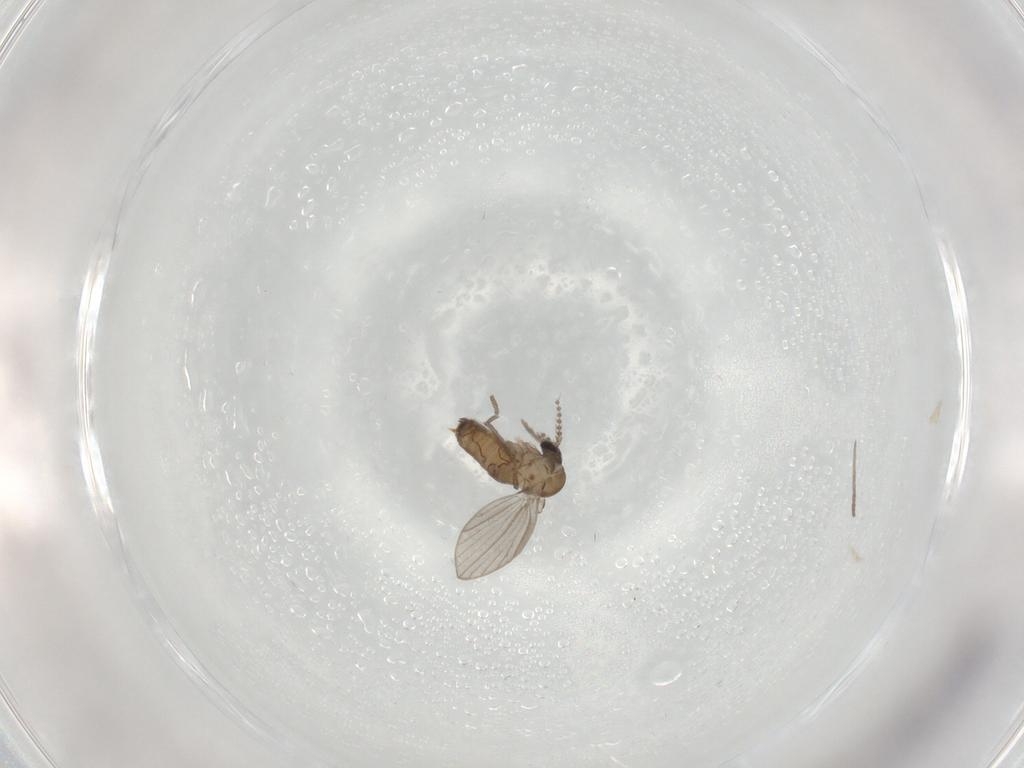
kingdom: Animalia
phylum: Arthropoda
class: Insecta
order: Diptera
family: Psychodidae
